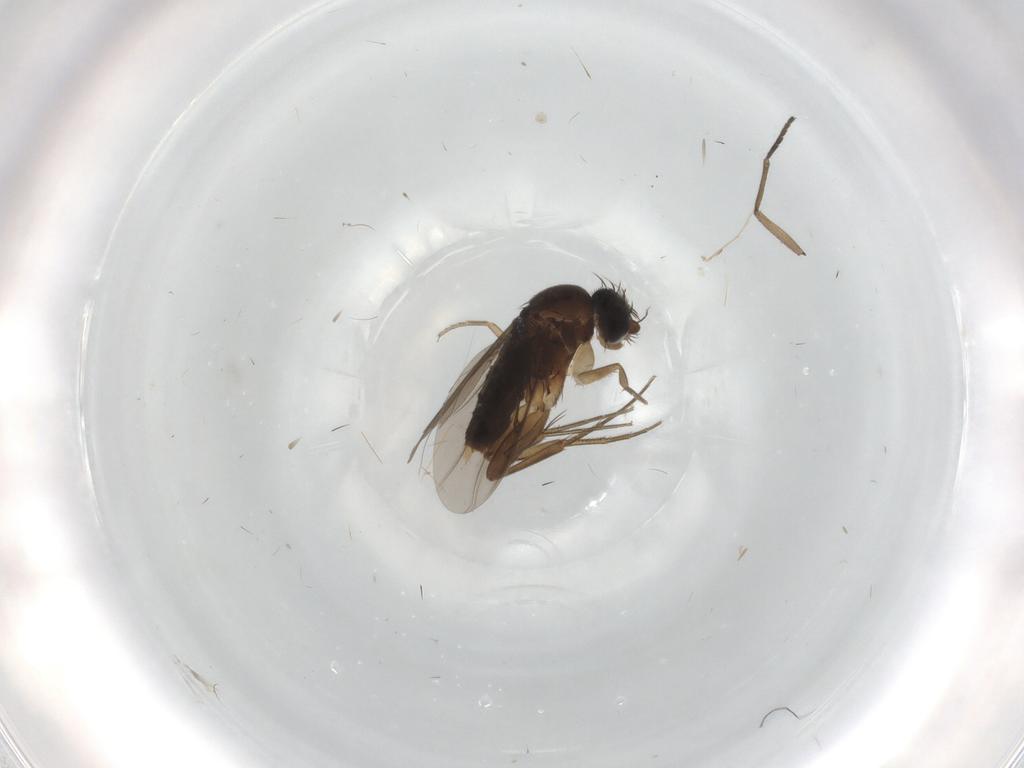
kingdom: Animalia
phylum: Arthropoda
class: Insecta
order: Diptera
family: Phoridae
